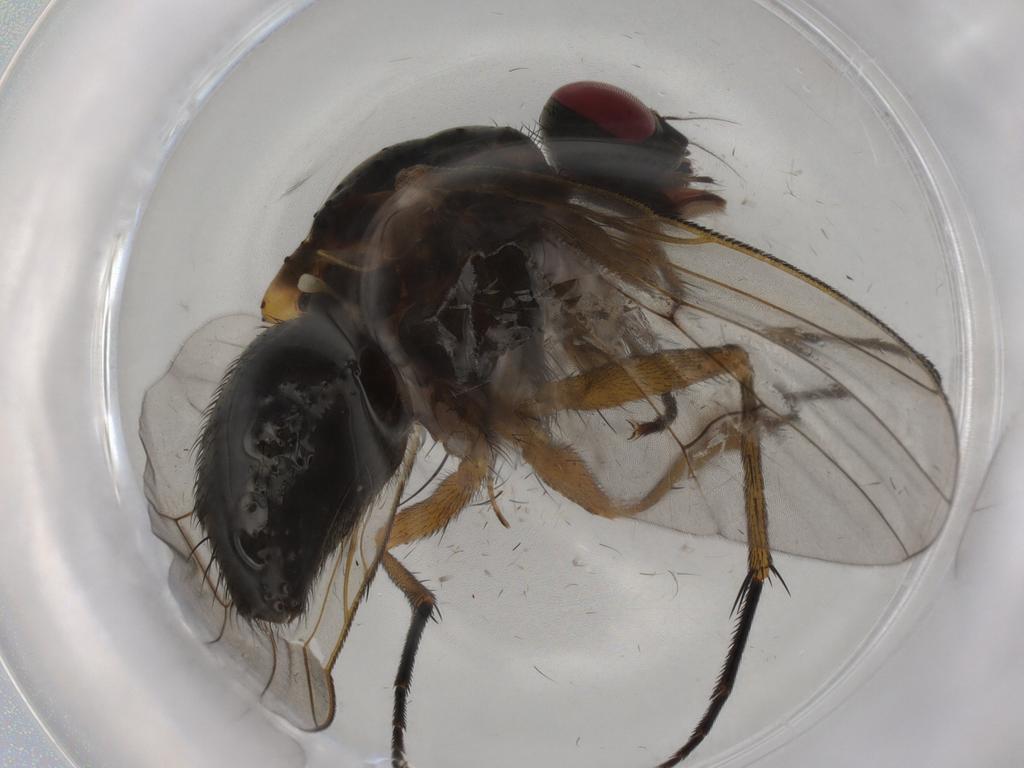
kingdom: Animalia
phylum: Arthropoda
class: Insecta
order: Diptera
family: Muscidae
